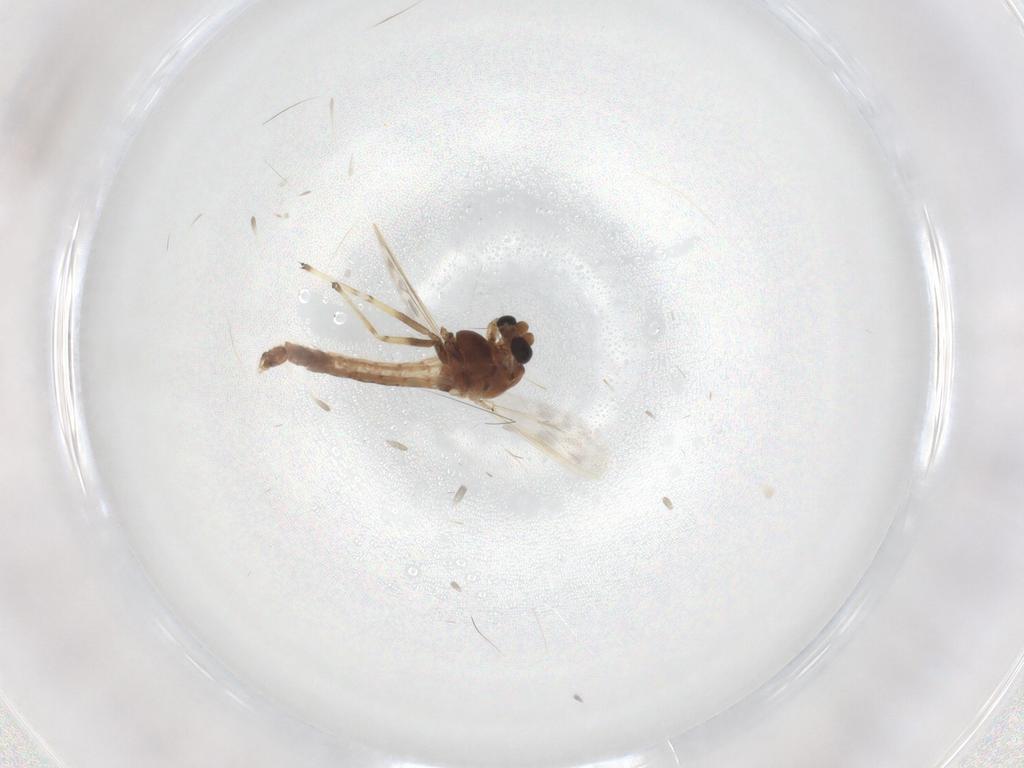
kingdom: Animalia
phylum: Arthropoda
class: Insecta
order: Diptera
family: Chironomidae
